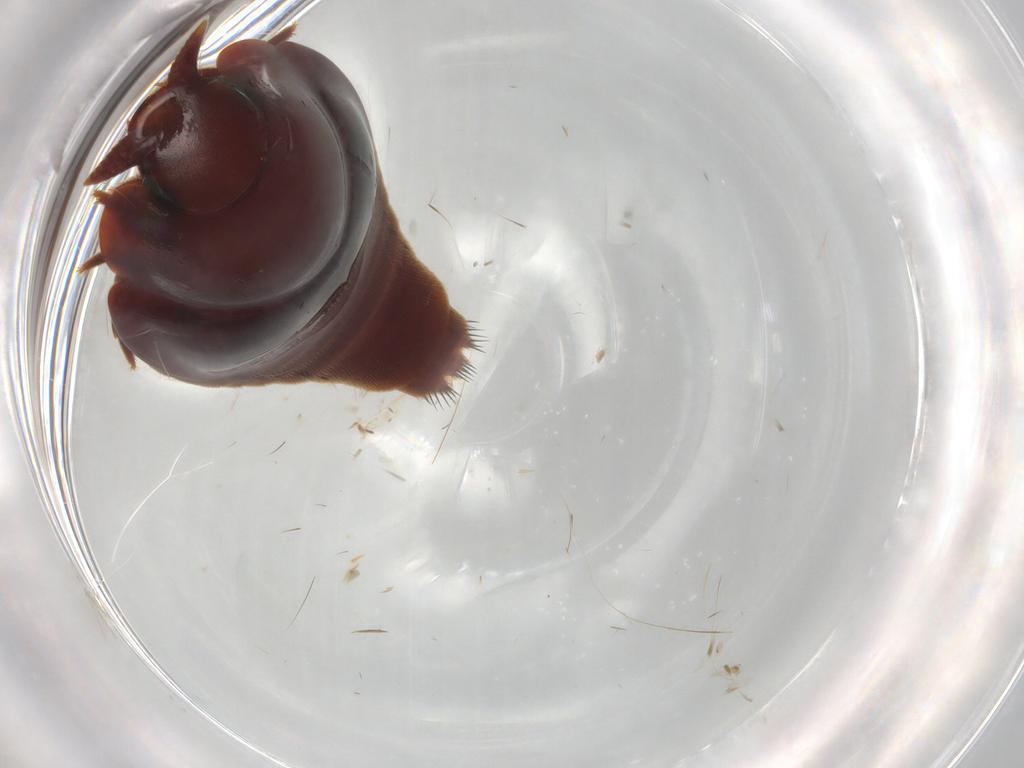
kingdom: Animalia
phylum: Arthropoda
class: Insecta
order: Coleoptera
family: Staphylinidae
